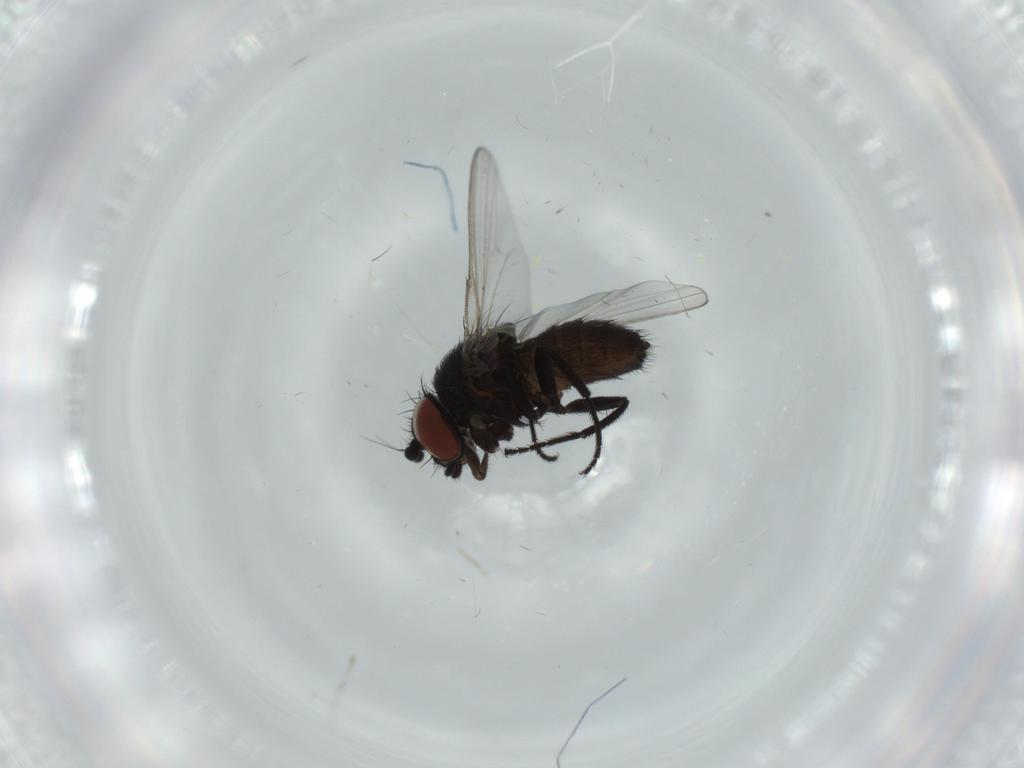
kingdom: Animalia
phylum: Arthropoda
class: Insecta
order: Diptera
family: Milichiidae
